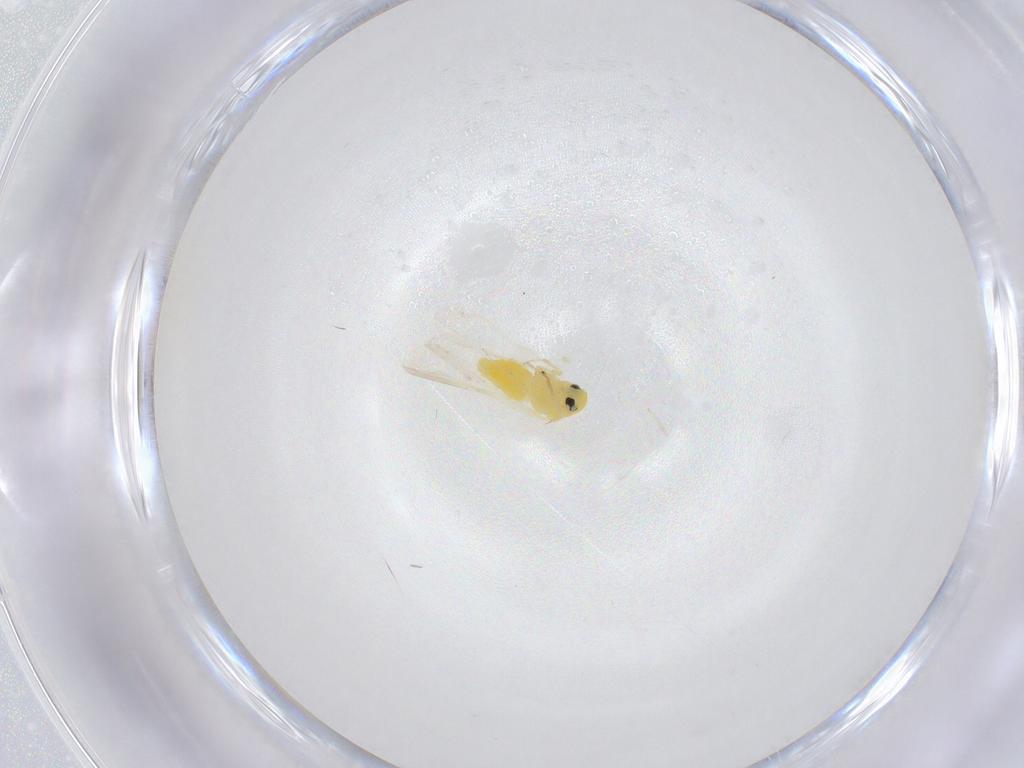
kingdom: Animalia
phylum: Arthropoda
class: Insecta
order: Hemiptera
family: Aleyrodidae
